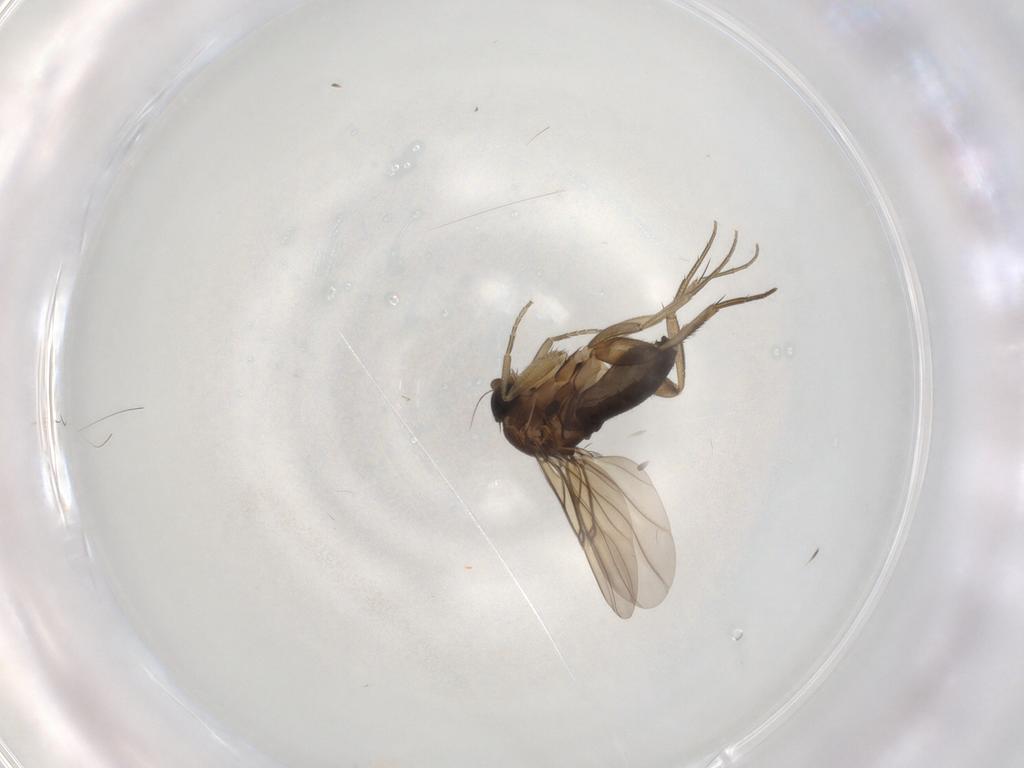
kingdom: Animalia
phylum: Arthropoda
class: Insecta
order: Diptera
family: Phoridae
